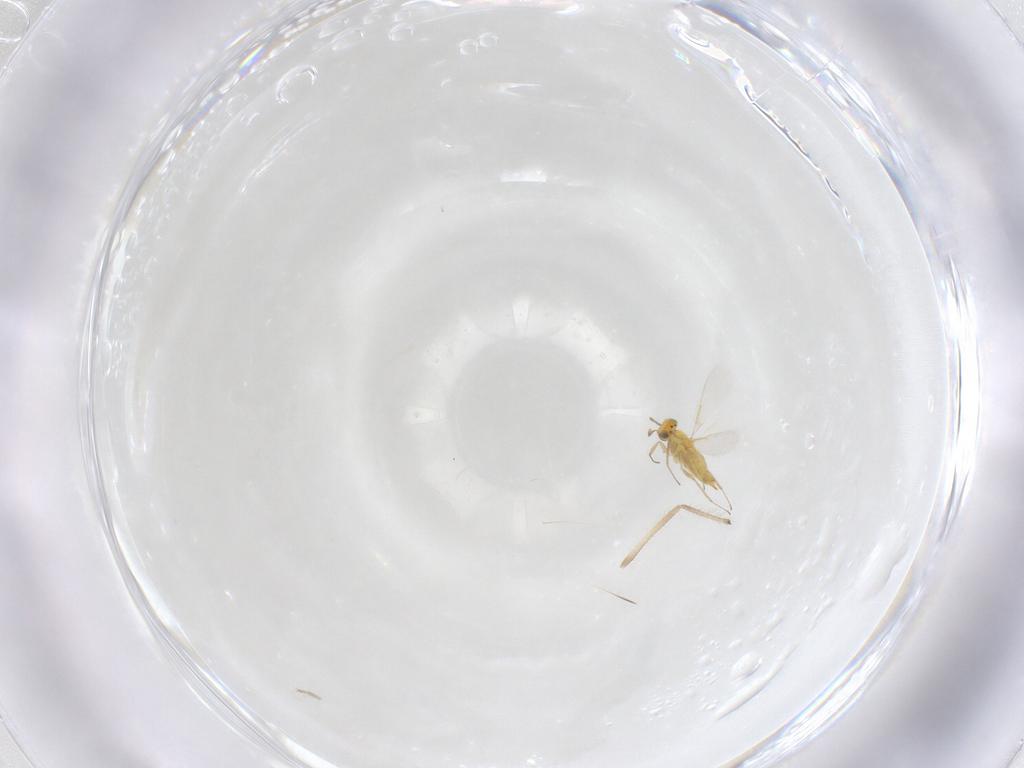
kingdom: Animalia
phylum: Arthropoda
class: Insecta
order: Hymenoptera
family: Aphelinidae
